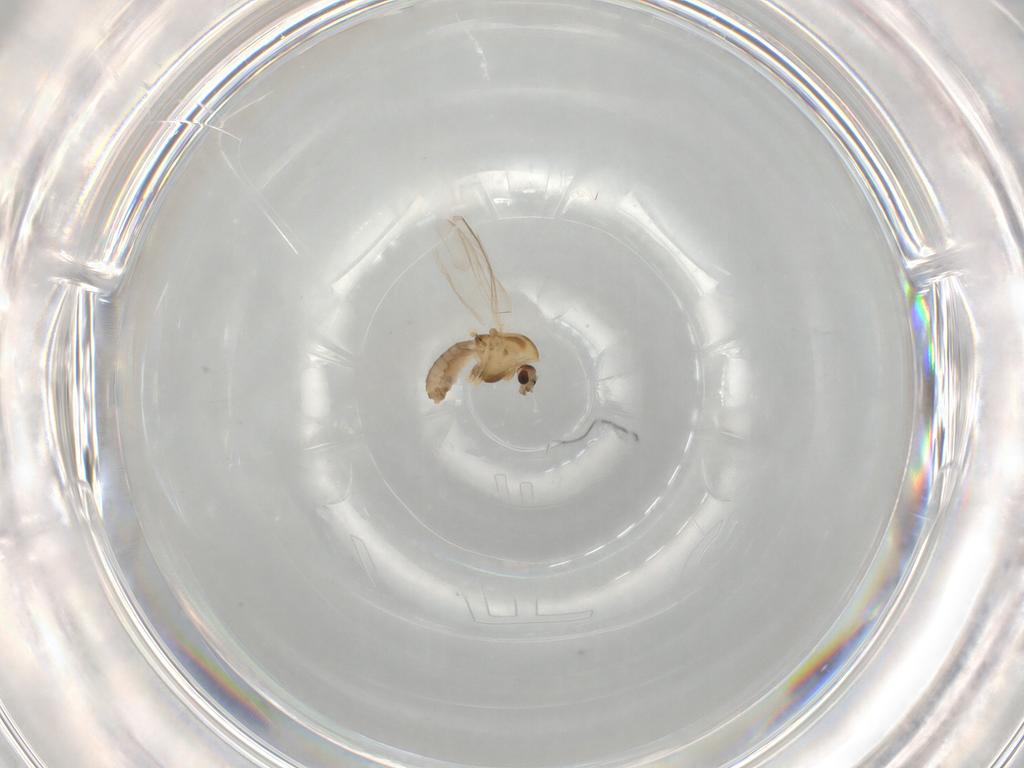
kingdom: Animalia
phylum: Arthropoda
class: Insecta
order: Diptera
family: Chironomidae
